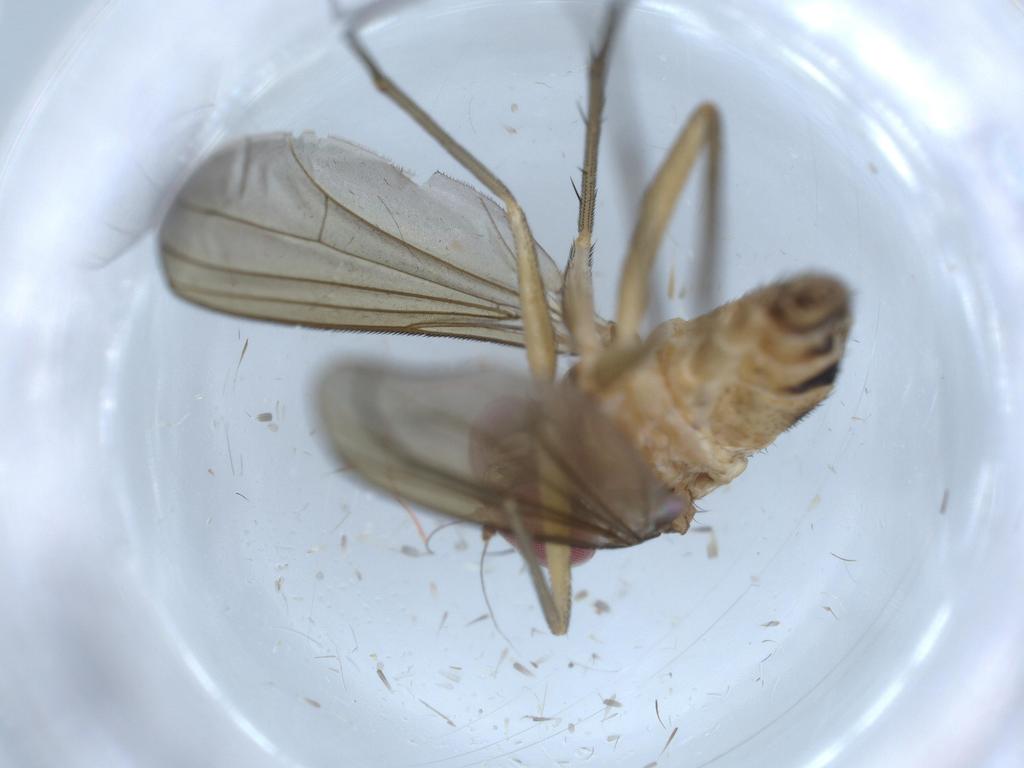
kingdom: Animalia
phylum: Arthropoda
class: Insecta
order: Diptera
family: Dolichopodidae
